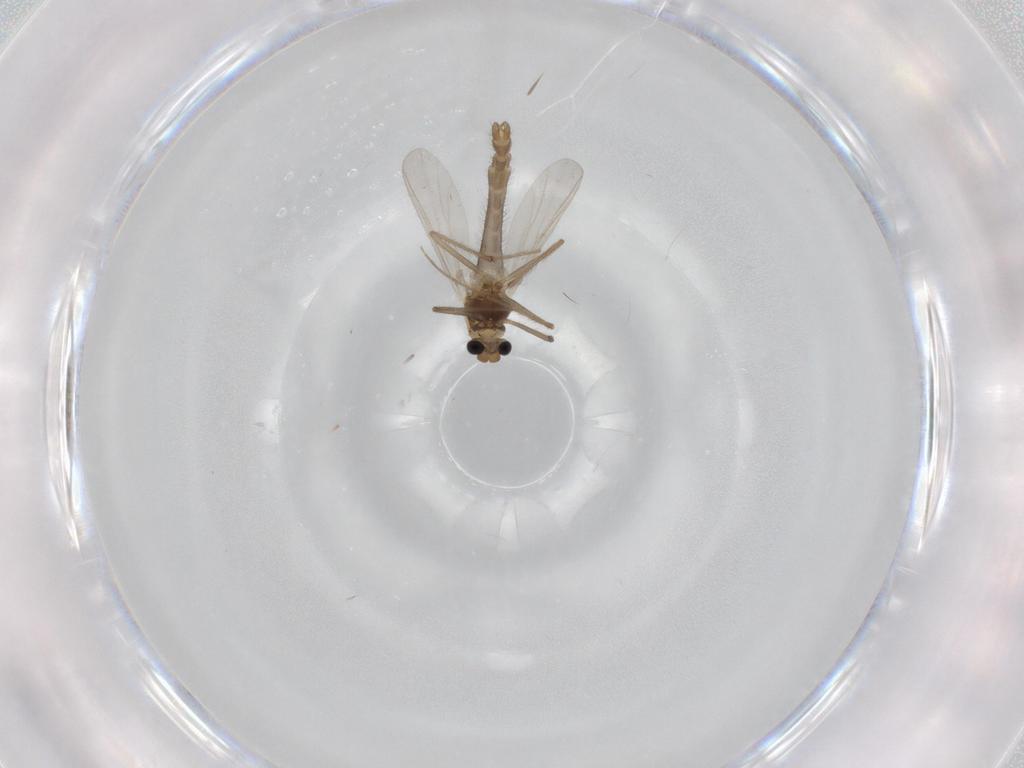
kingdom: Animalia
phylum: Arthropoda
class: Insecta
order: Diptera
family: Chironomidae
